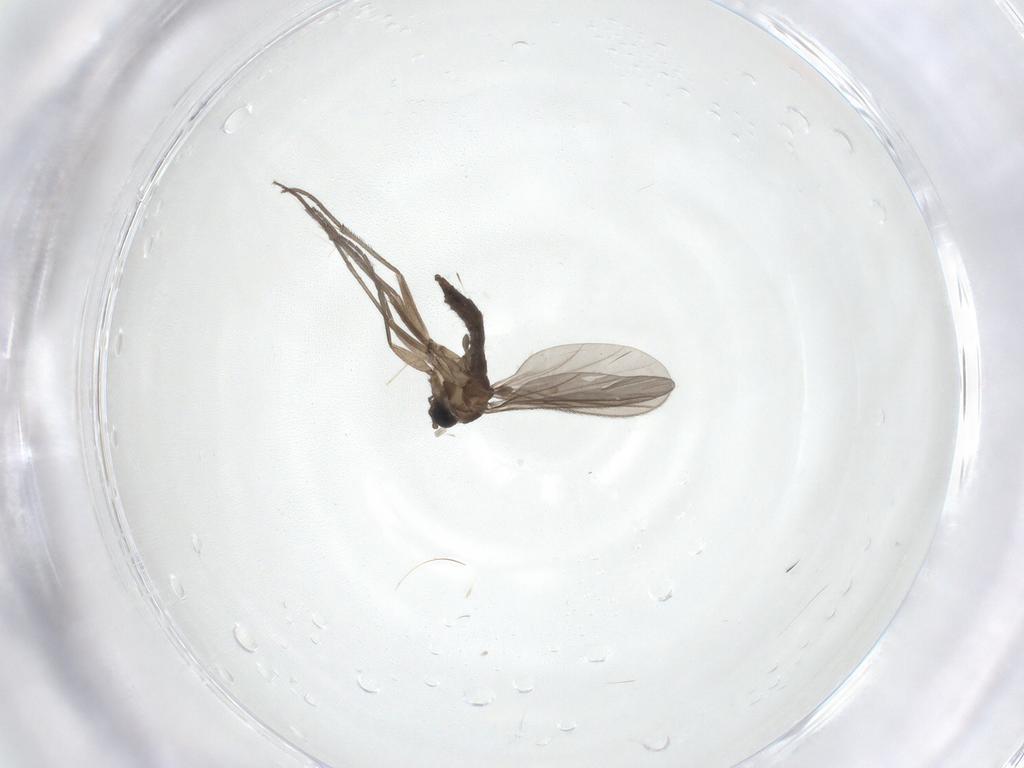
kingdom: Animalia
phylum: Arthropoda
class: Insecta
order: Diptera
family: Sciaridae
